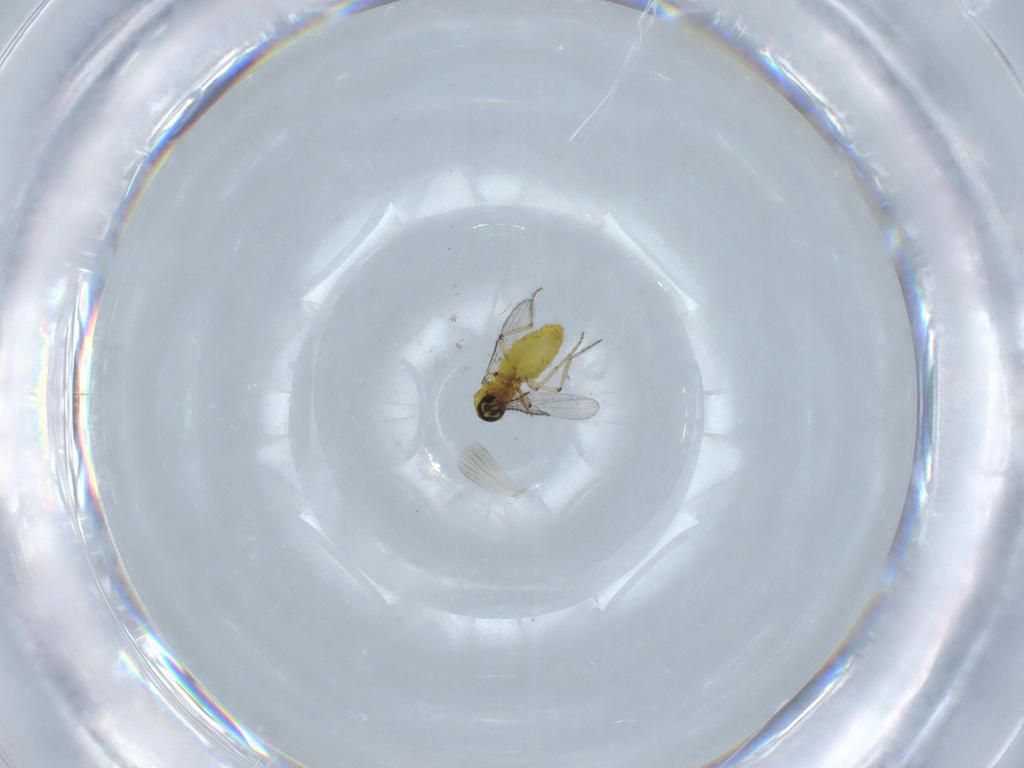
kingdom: Animalia
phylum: Arthropoda
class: Insecta
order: Diptera
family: Ceratopogonidae
